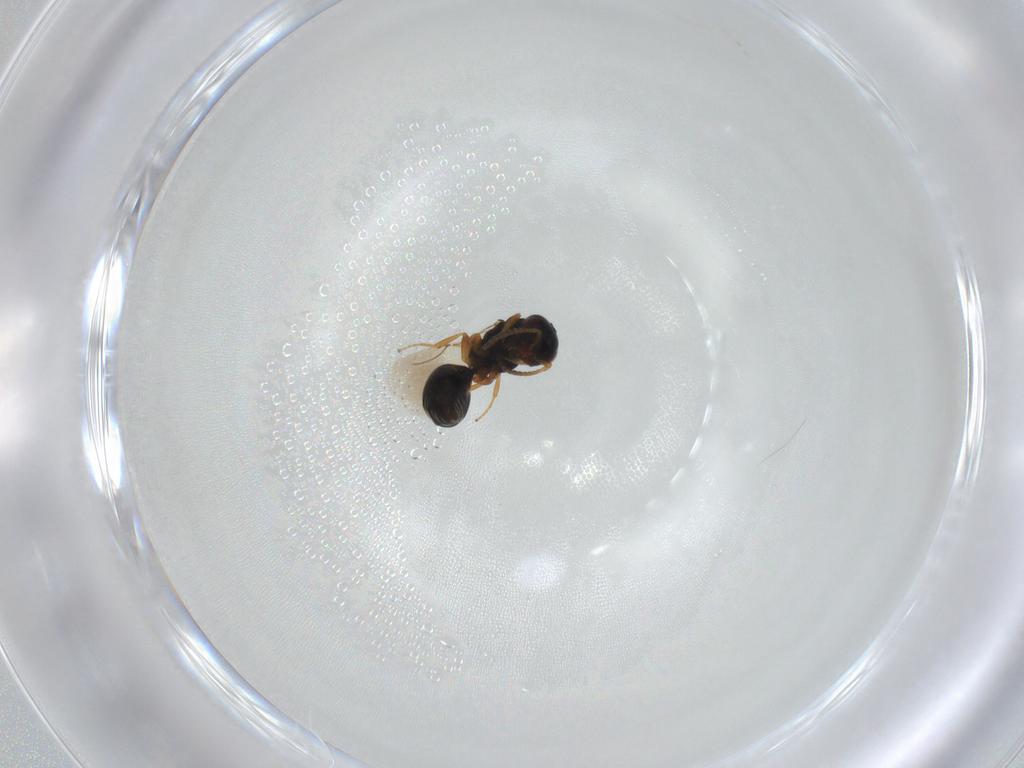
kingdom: Animalia
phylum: Arthropoda
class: Insecta
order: Hymenoptera
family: Bethylidae
